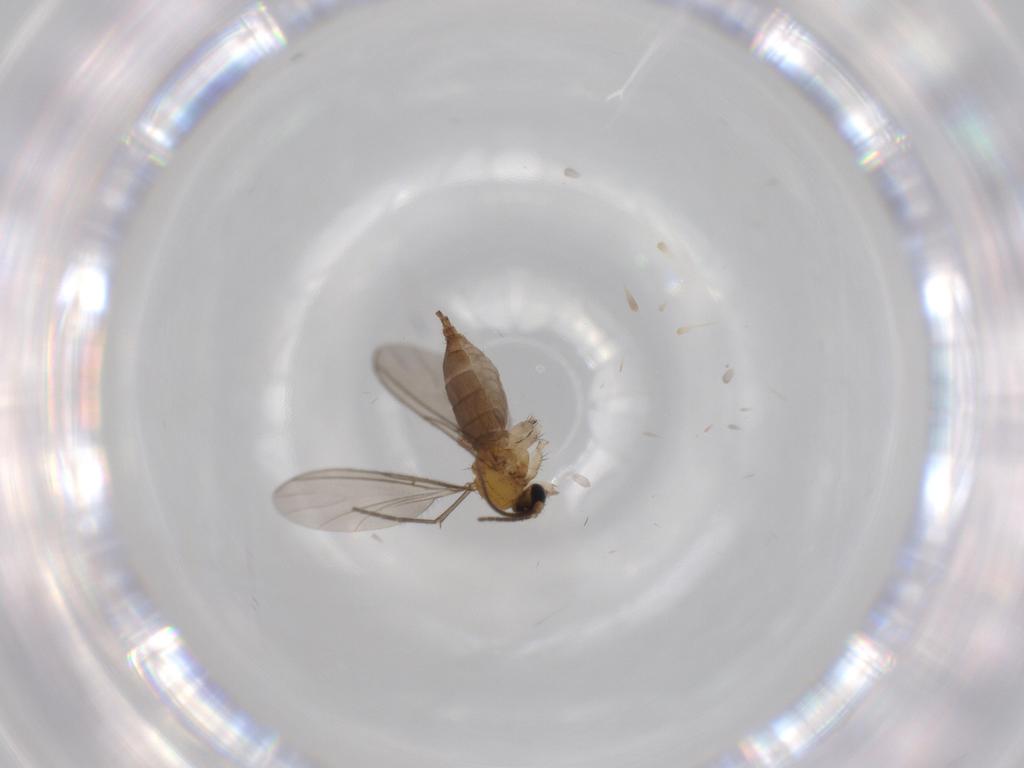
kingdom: Animalia
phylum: Arthropoda
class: Insecta
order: Diptera
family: Sciaridae
